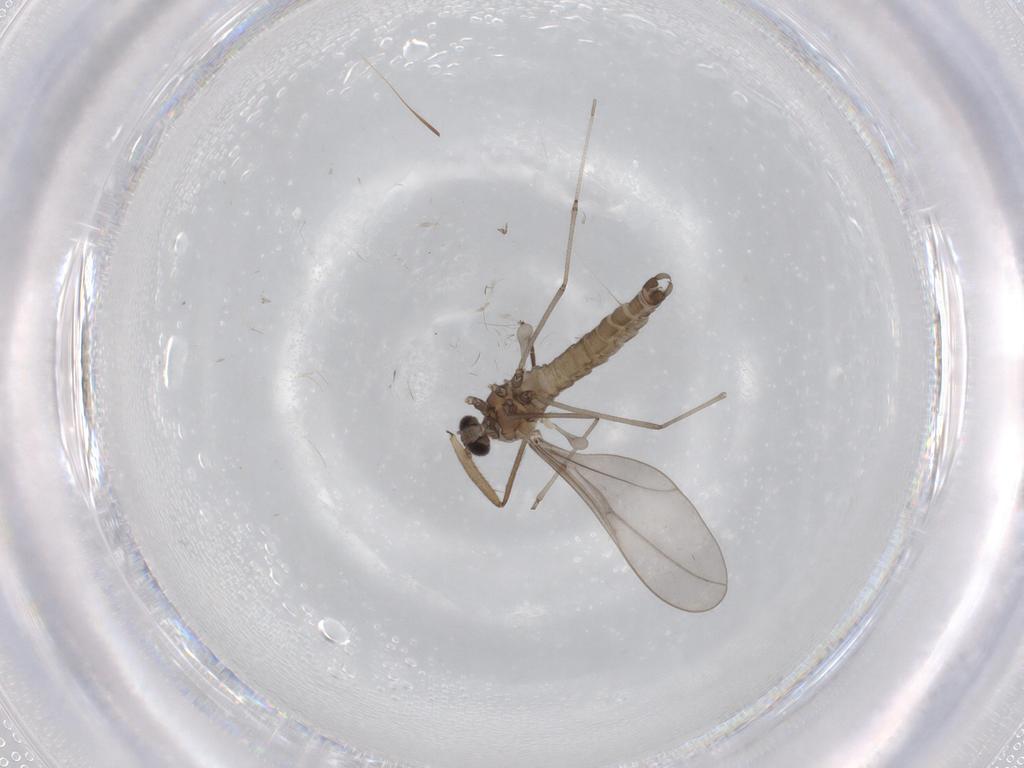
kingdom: Animalia
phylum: Arthropoda
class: Insecta
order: Diptera
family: Sciaridae
